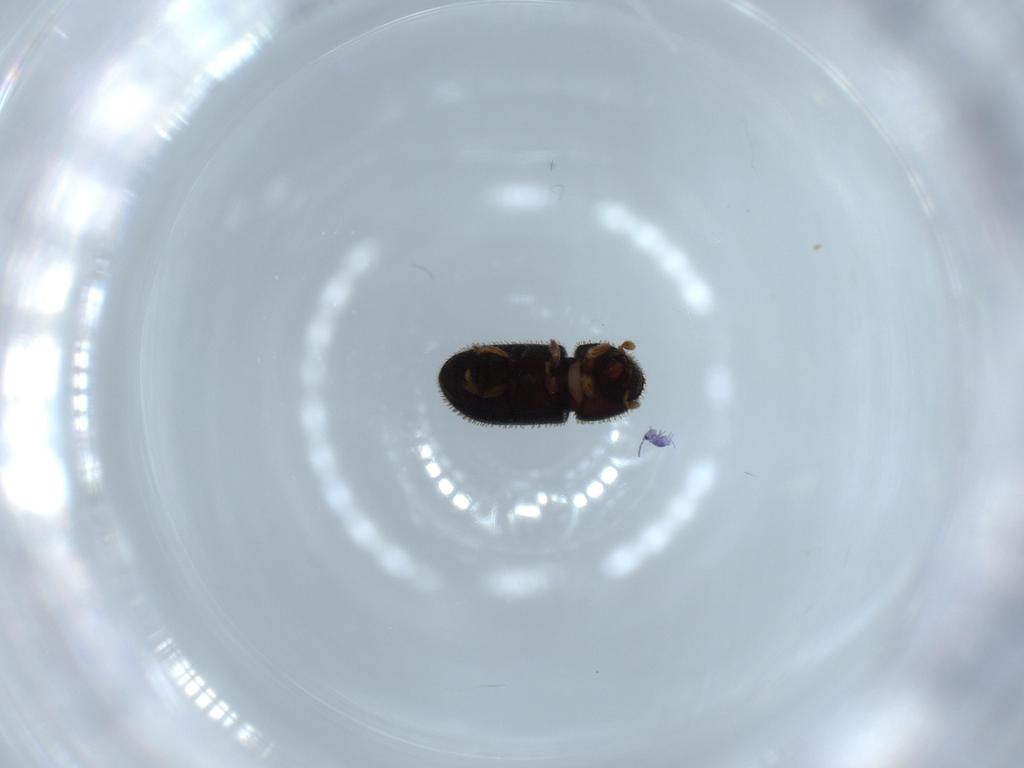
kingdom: Animalia
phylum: Arthropoda
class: Insecta
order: Coleoptera
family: Curculionidae
